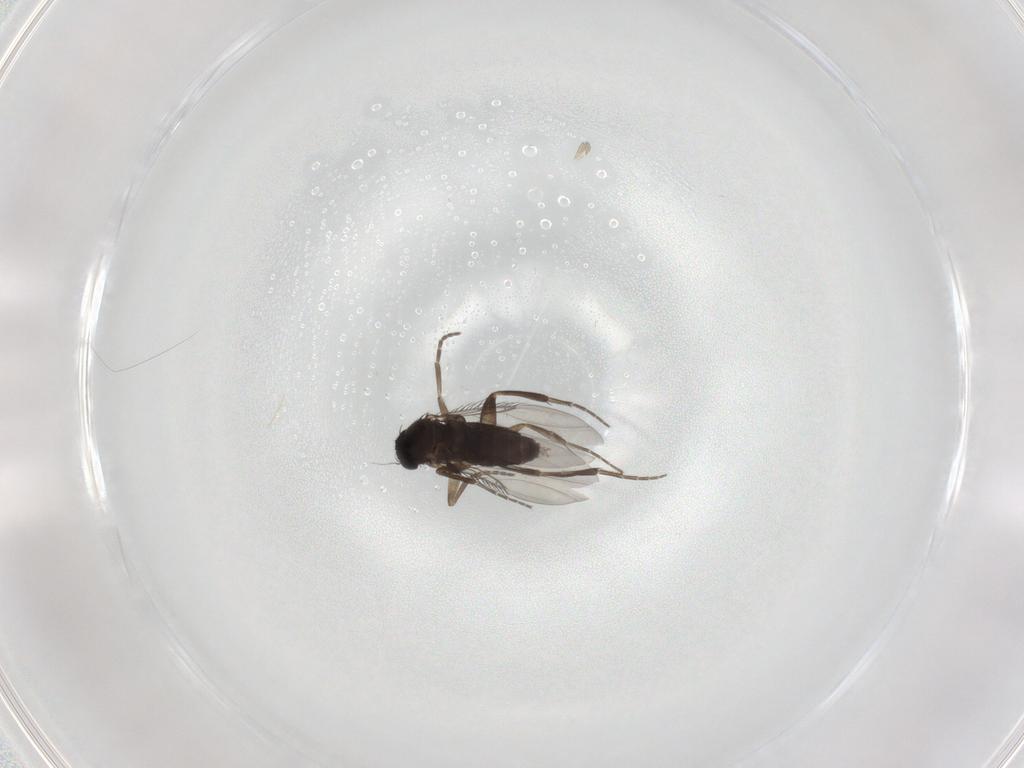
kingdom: Animalia
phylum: Arthropoda
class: Insecta
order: Diptera
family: Phoridae
